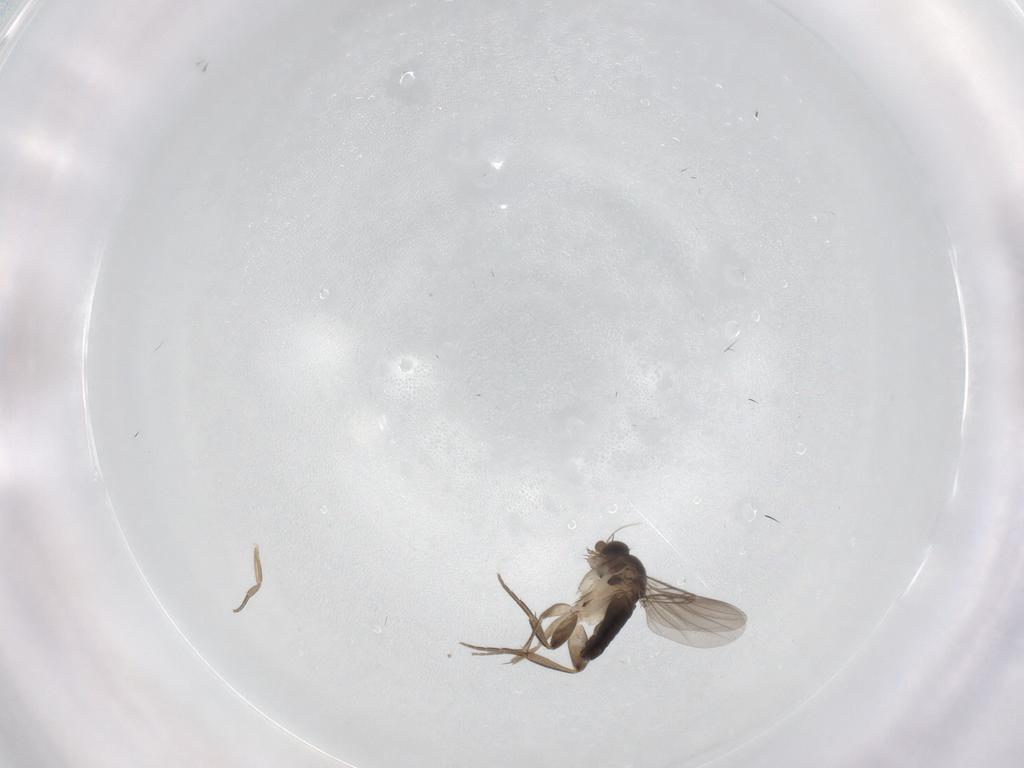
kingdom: Animalia
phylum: Arthropoda
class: Insecta
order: Diptera
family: Phoridae
